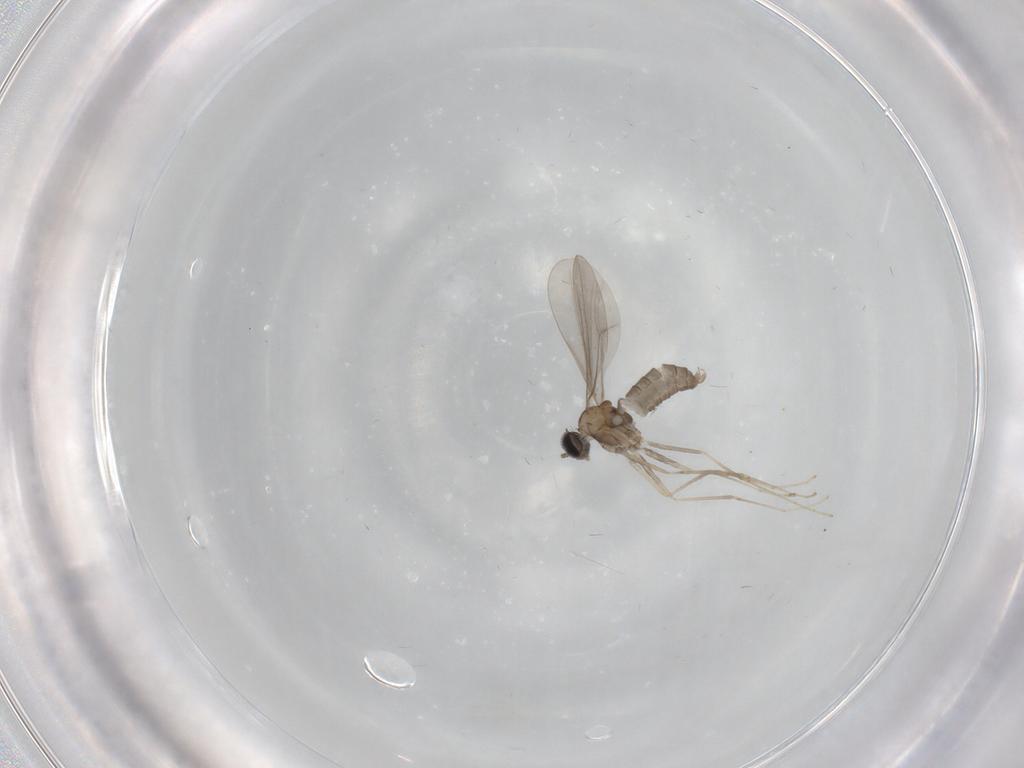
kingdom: Animalia
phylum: Arthropoda
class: Insecta
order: Diptera
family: Cecidomyiidae
